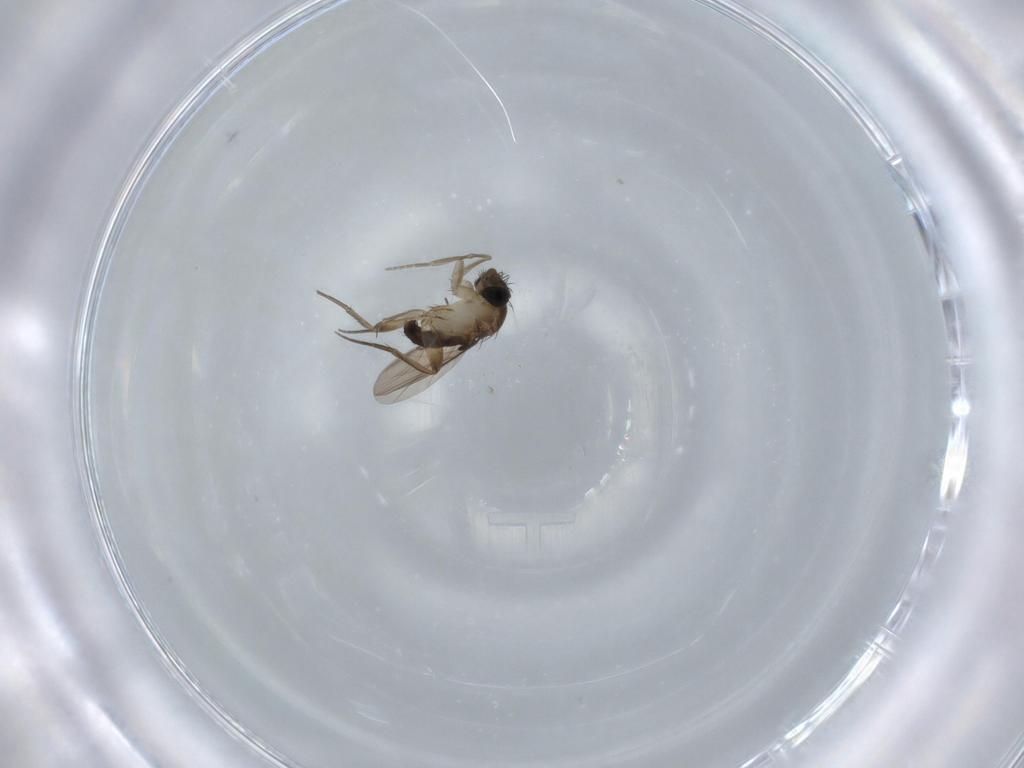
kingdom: Animalia
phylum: Arthropoda
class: Insecta
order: Diptera
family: Phoridae
